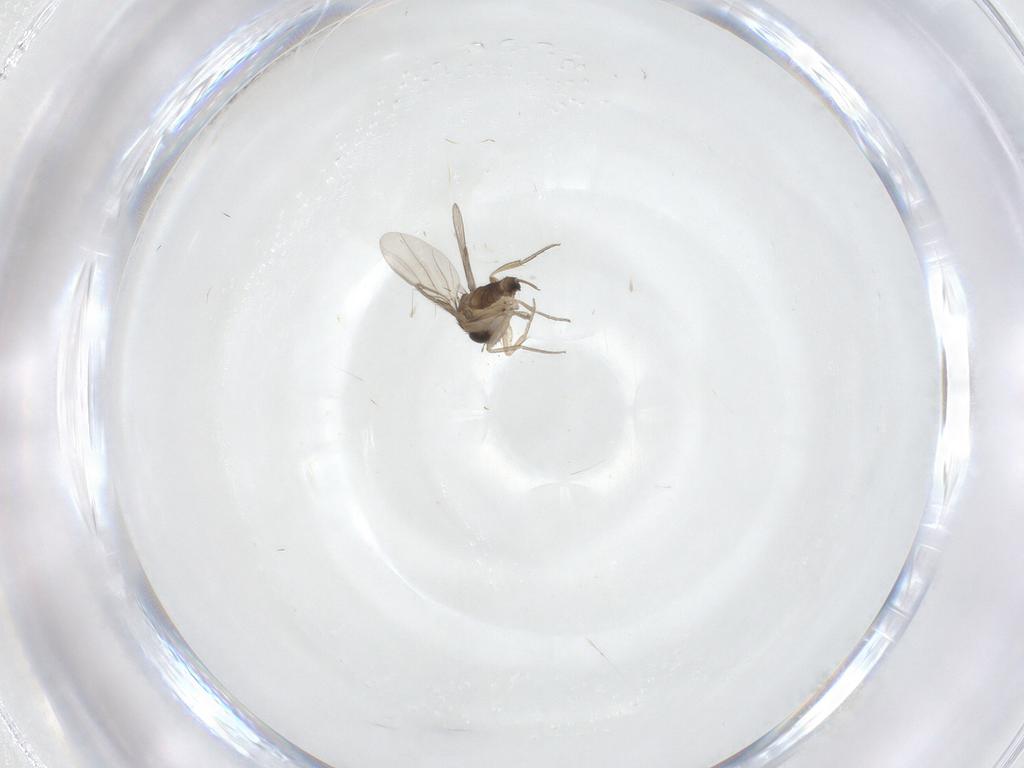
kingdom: Animalia
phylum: Arthropoda
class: Insecta
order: Diptera
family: Phoridae
